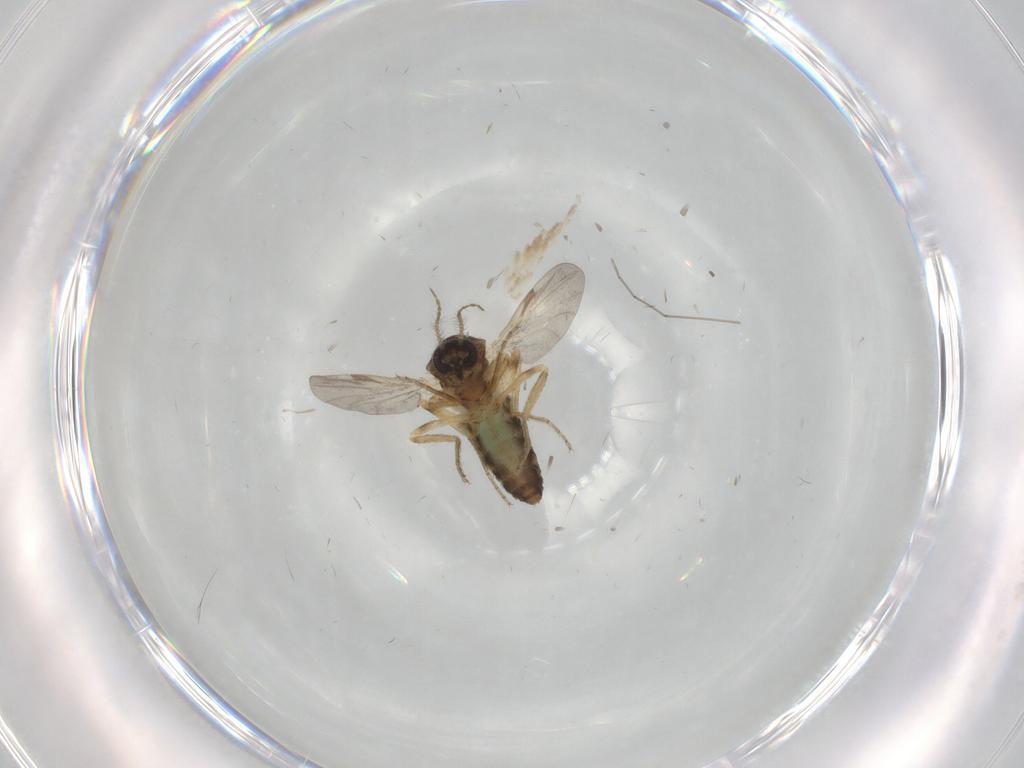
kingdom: Animalia
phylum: Arthropoda
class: Insecta
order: Diptera
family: Ceratopogonidae
